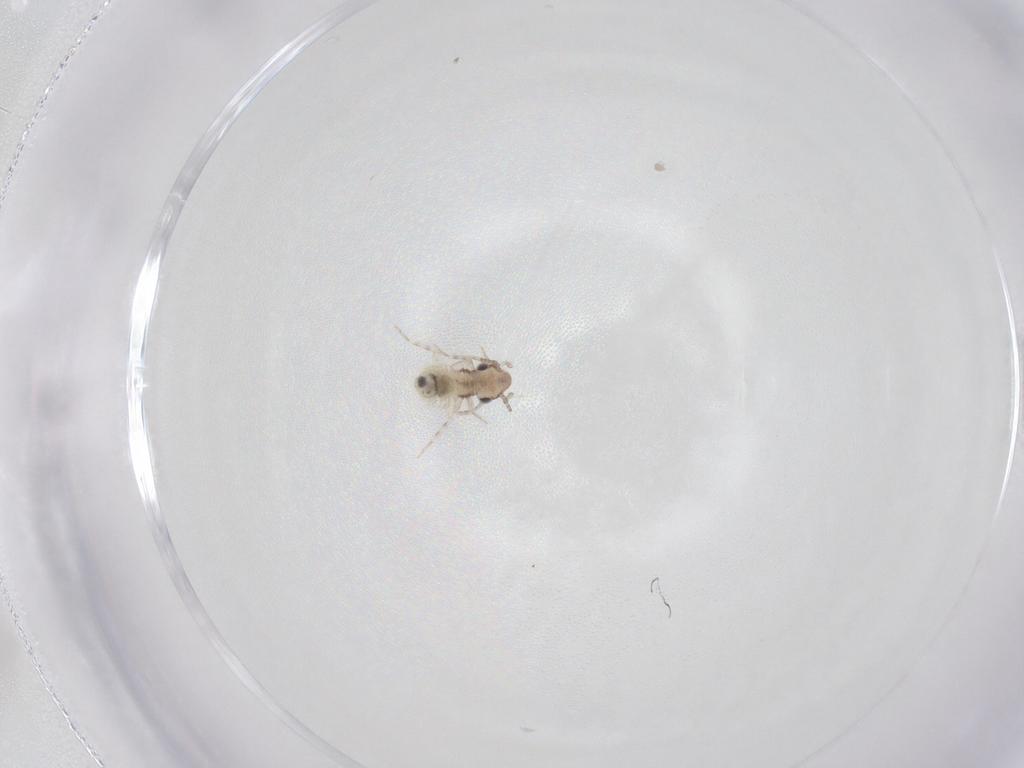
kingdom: Animalia
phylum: Arthropoda
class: Insecta
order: Psocodea
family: Lepidopsocidae
